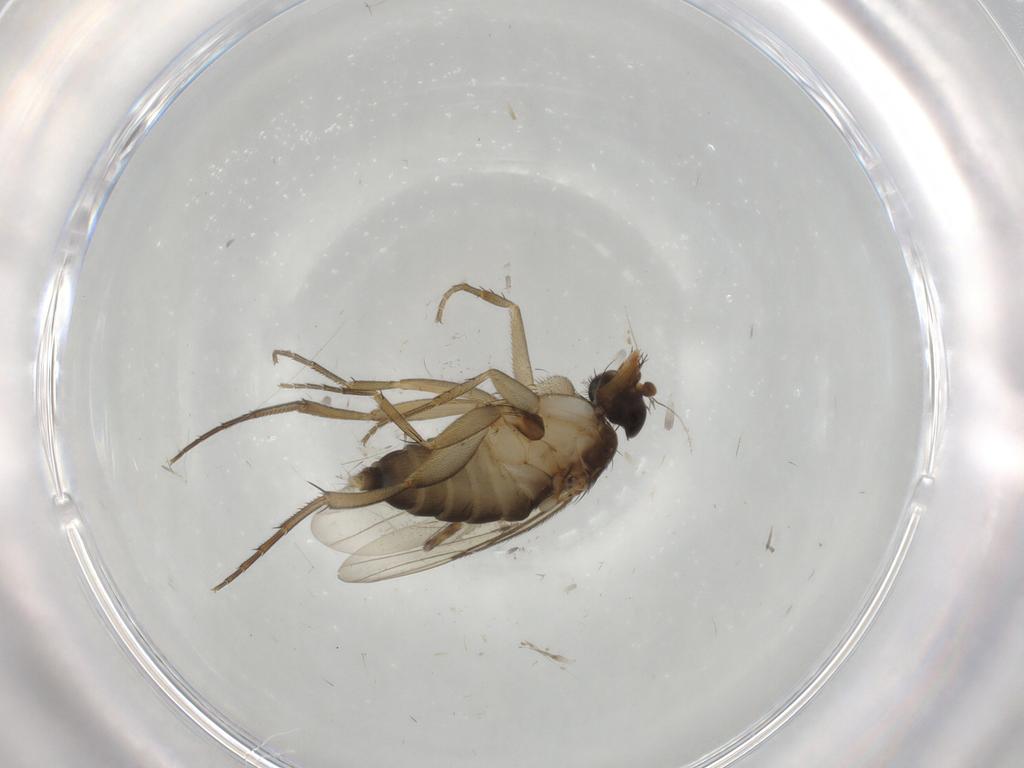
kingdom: Animalia
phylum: Arthropoda
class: Insecta
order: Diptera
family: Phoridae
